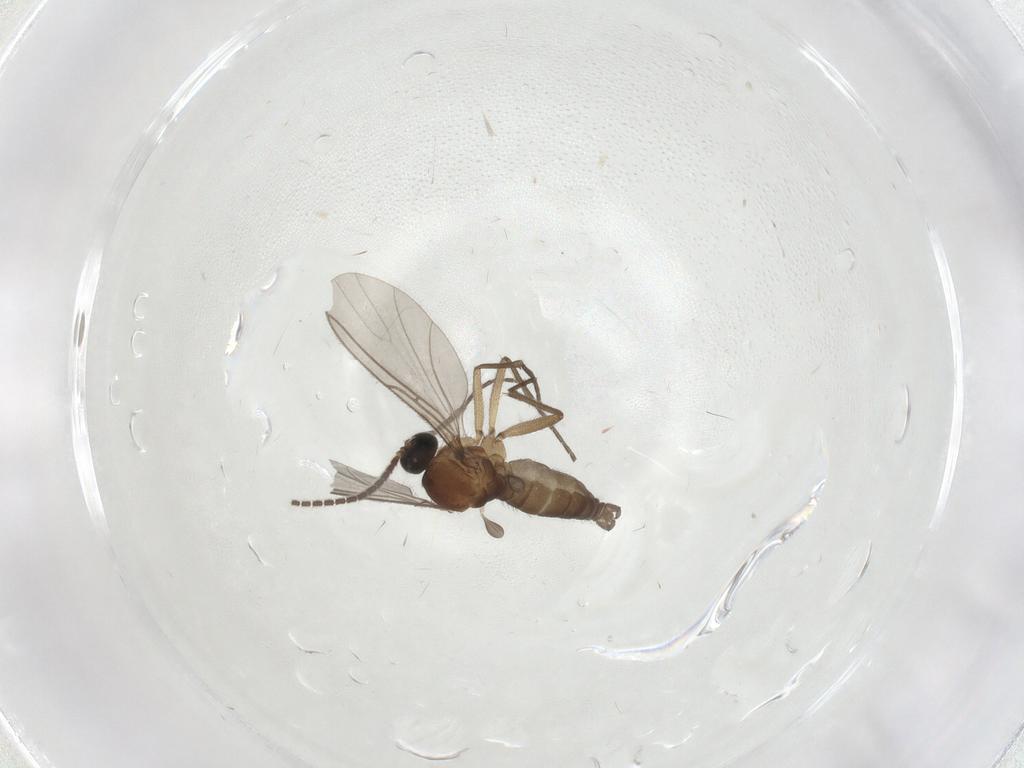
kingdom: Animalia
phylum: Arthropoda
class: Insecta
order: Diptera
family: Sciaridae
